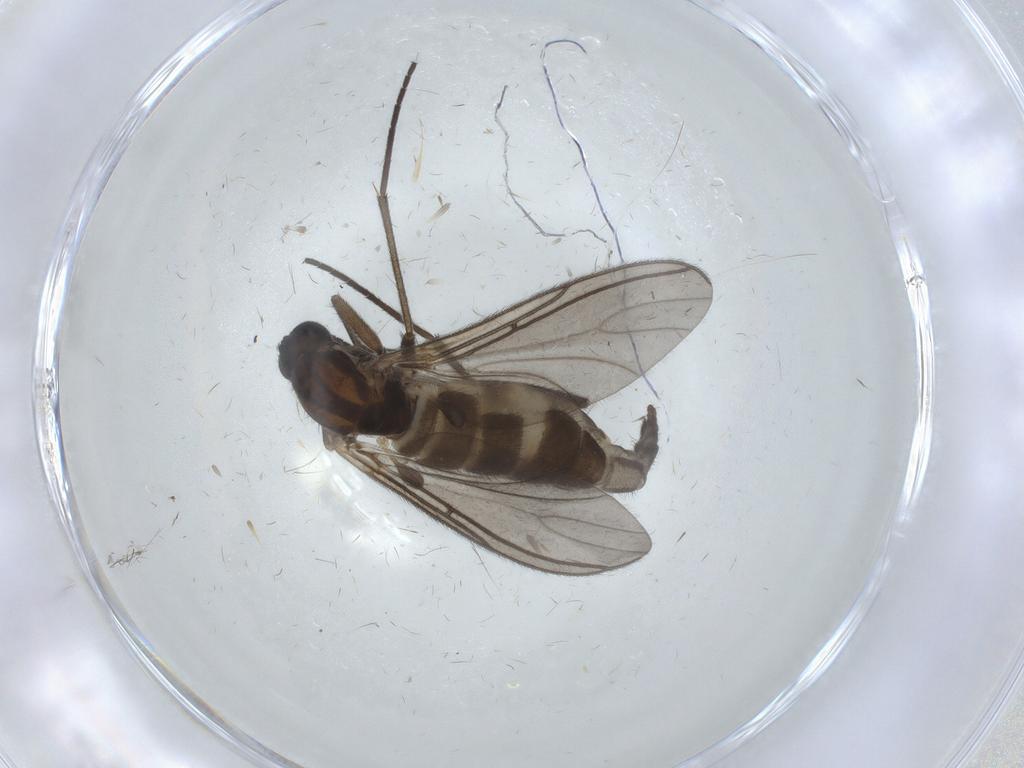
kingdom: Animalia
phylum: Arthropoda
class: Insecta
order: Diptera
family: Sciaridae
